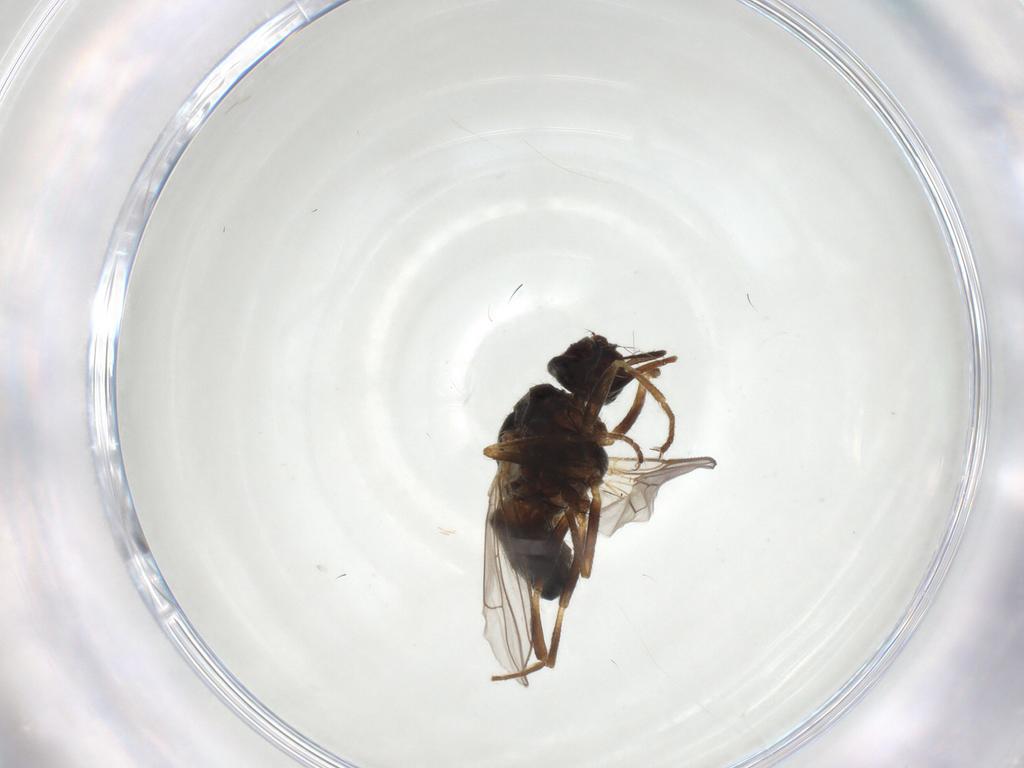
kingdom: Animalia
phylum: Arthropoda
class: Insecta
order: Diptera
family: Muscidae
